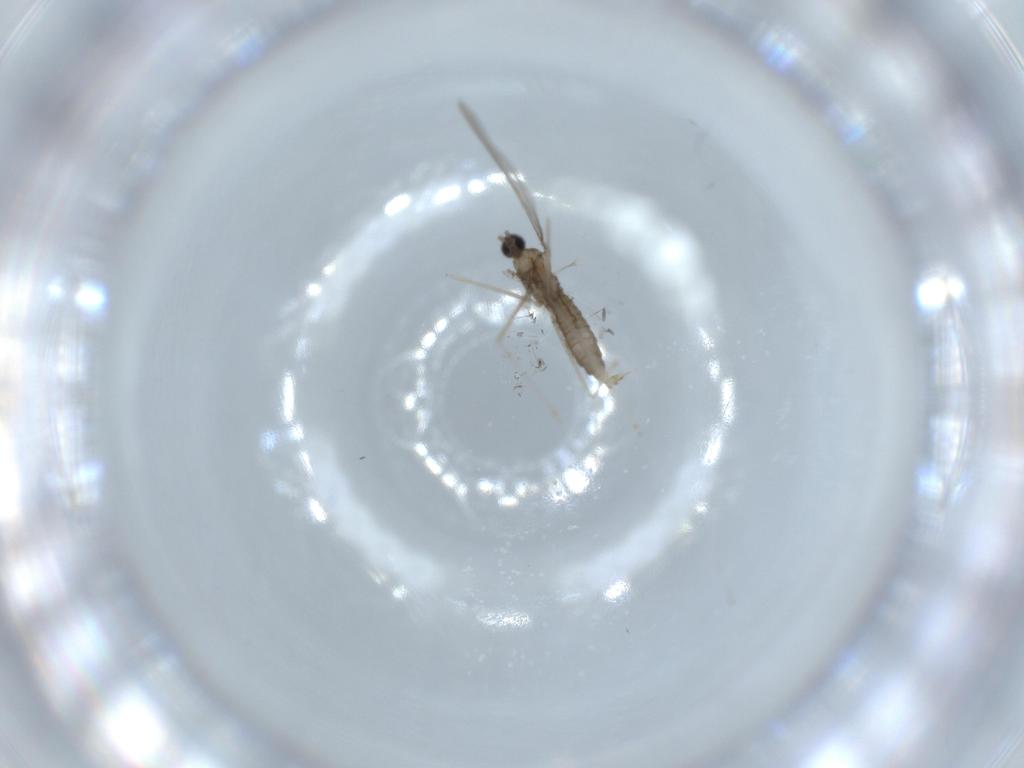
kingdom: Animalia
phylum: Arthropoda
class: Insecta
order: Diptera
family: Cecidomyiidae
